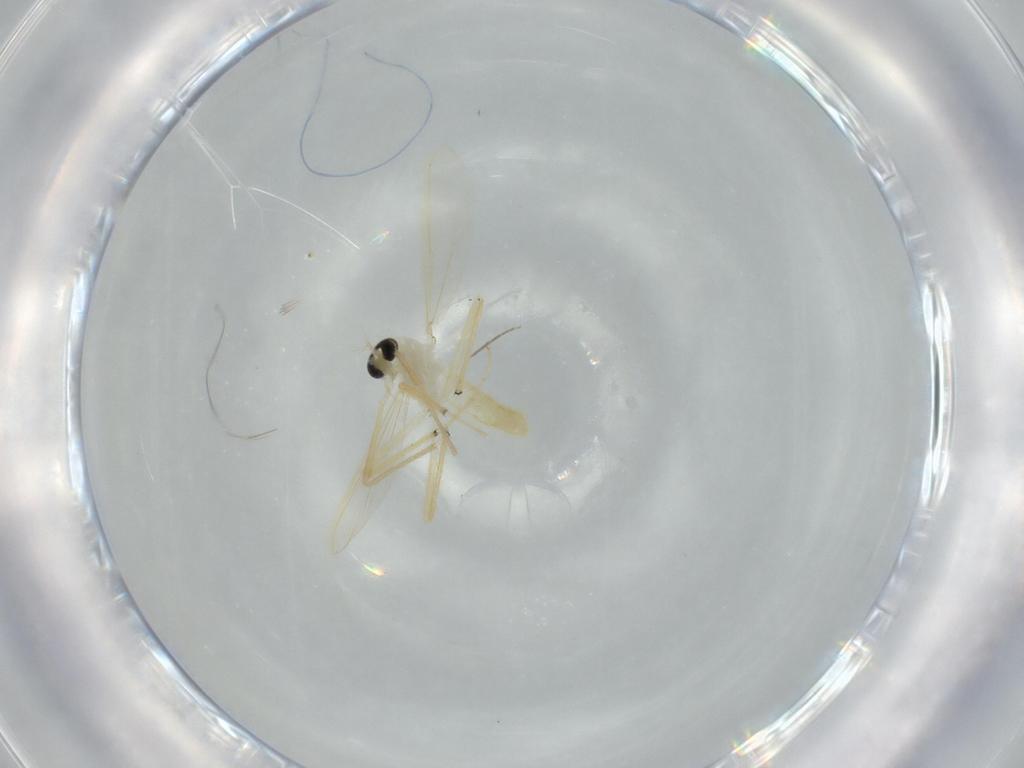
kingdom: Animalia
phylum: Arthropoda
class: Insecta
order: Diptera
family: Chironomidae
